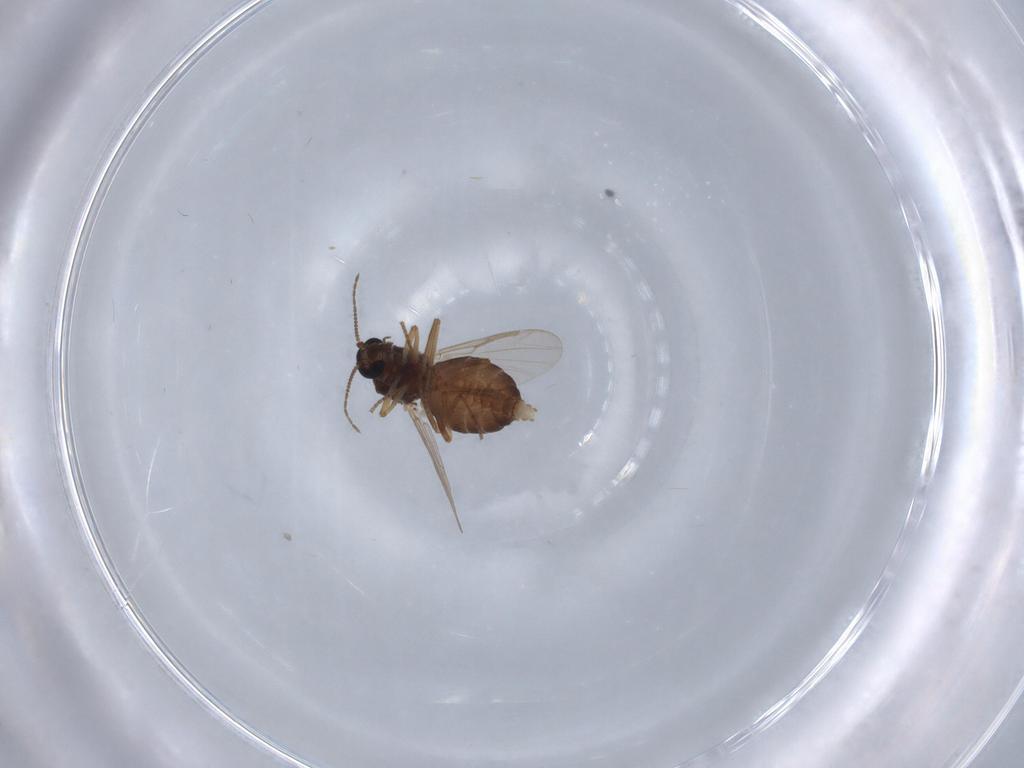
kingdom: Animalia
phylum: Arthropoda
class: Insecta
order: Diptera
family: Ceratopogonidae
